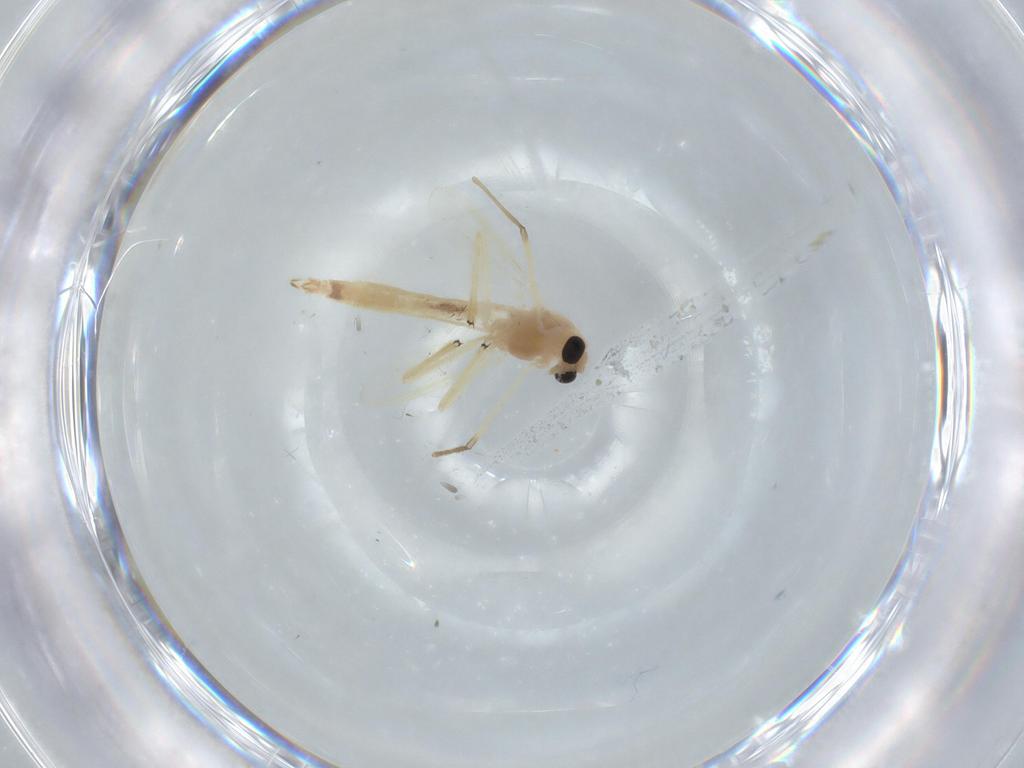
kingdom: Animalia
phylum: Arthropoda
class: Insecta
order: Diptera
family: Chironomidae
